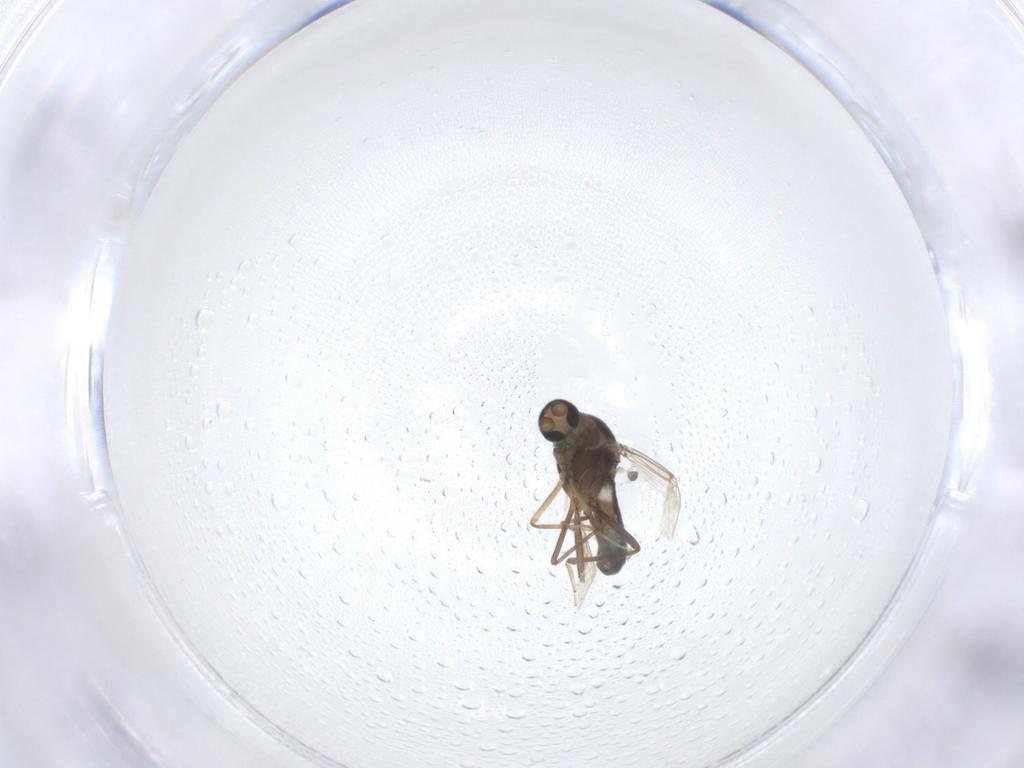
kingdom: Animalia
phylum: Arthropoda
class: Insecta
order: Diptera
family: Ceratopogonidae
